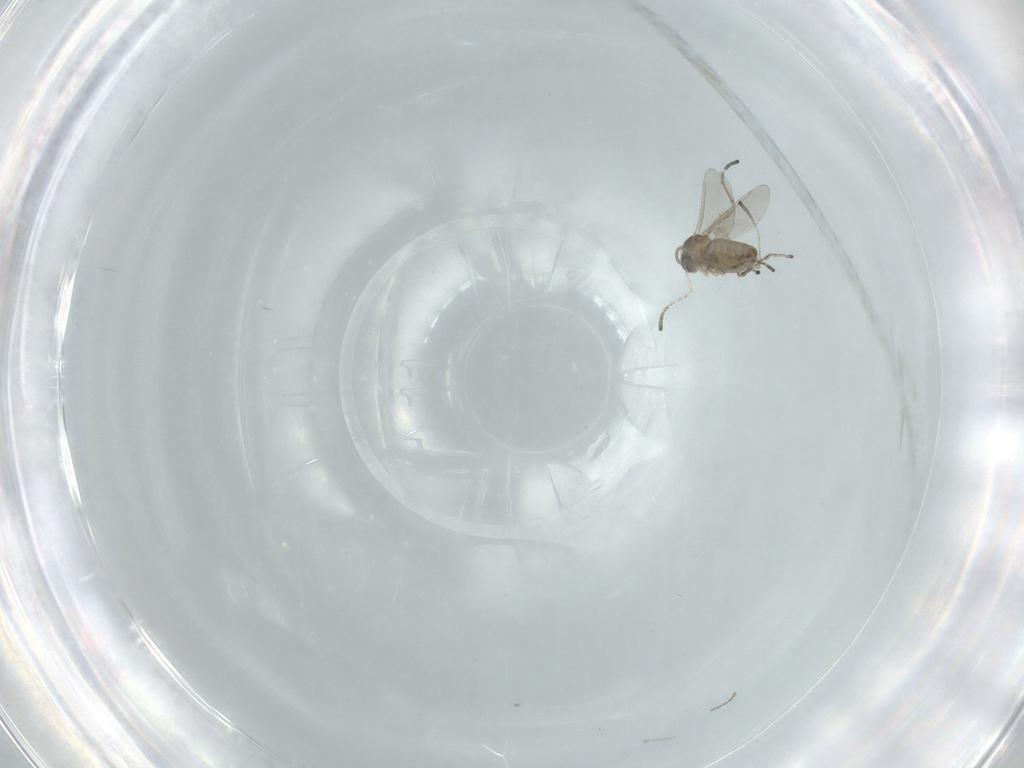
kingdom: Animalia
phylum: Arthropoda
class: Insecta
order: Diptera
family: Cecidomyiidae
